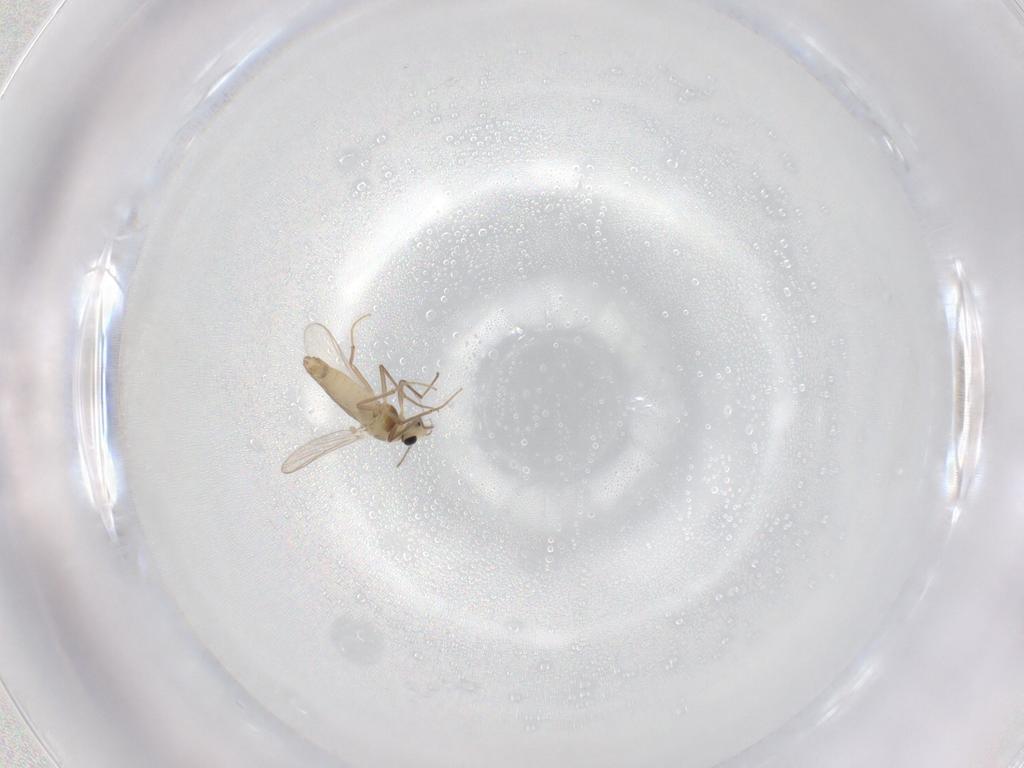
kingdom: Animalia
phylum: Arthropoda
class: Insecta
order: Diptera
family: Chironomidae
